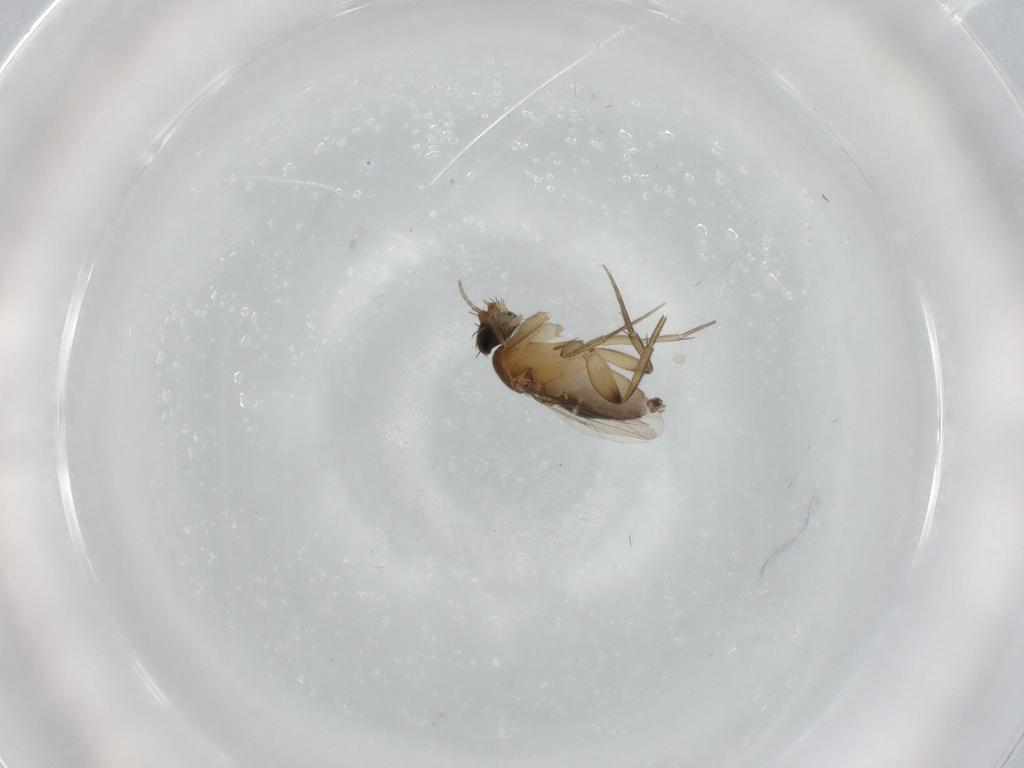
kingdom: Animalia
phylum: Arthropoda
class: Insecta
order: Diptera
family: Phoridae
